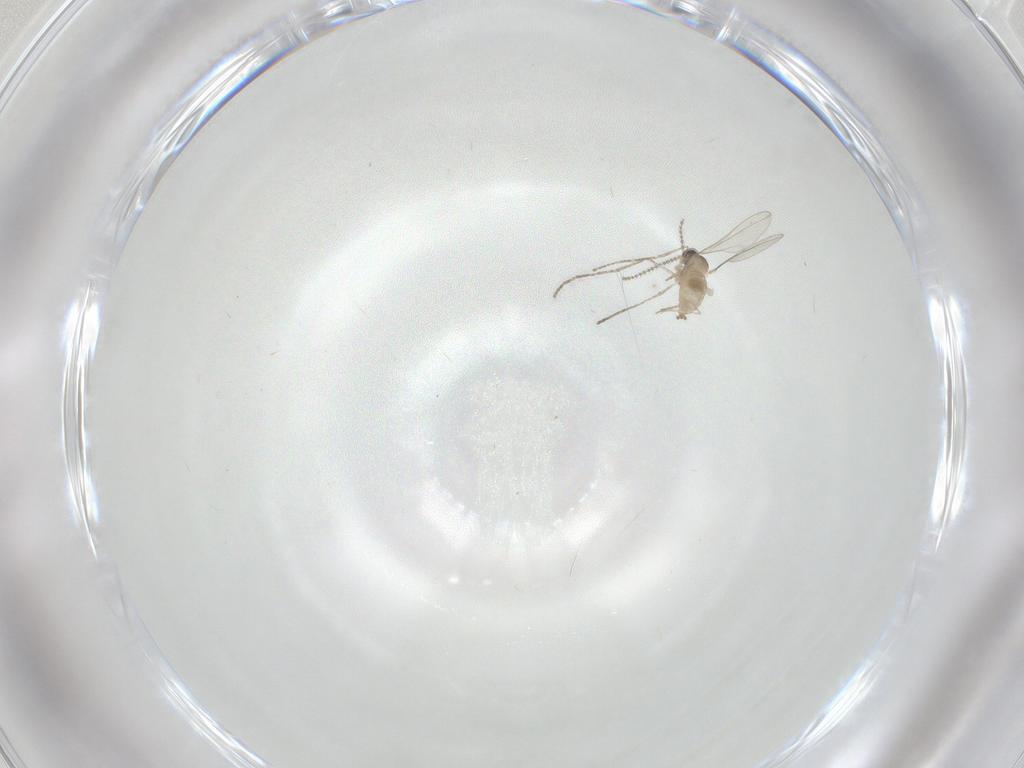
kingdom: Animalia
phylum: Arthropoda
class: Insecta
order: Diptera
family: Cecidomyiidae
